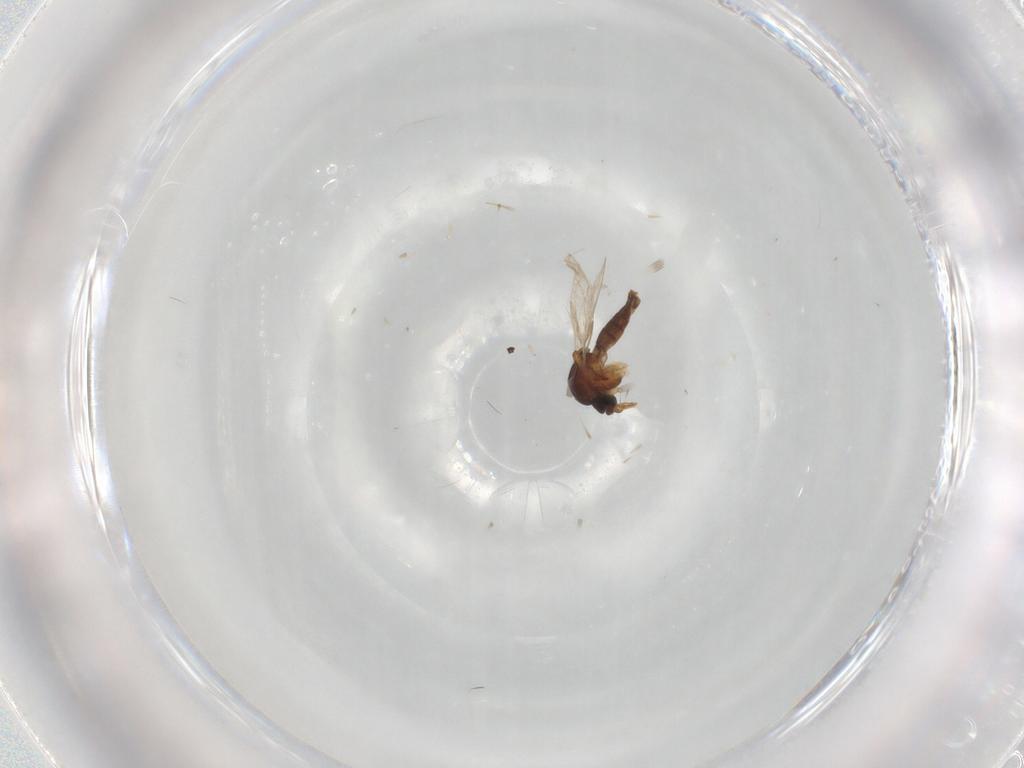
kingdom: Animalia
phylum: Arthropoda
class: Insecta
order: Diptera
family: Ceratopogonidae
